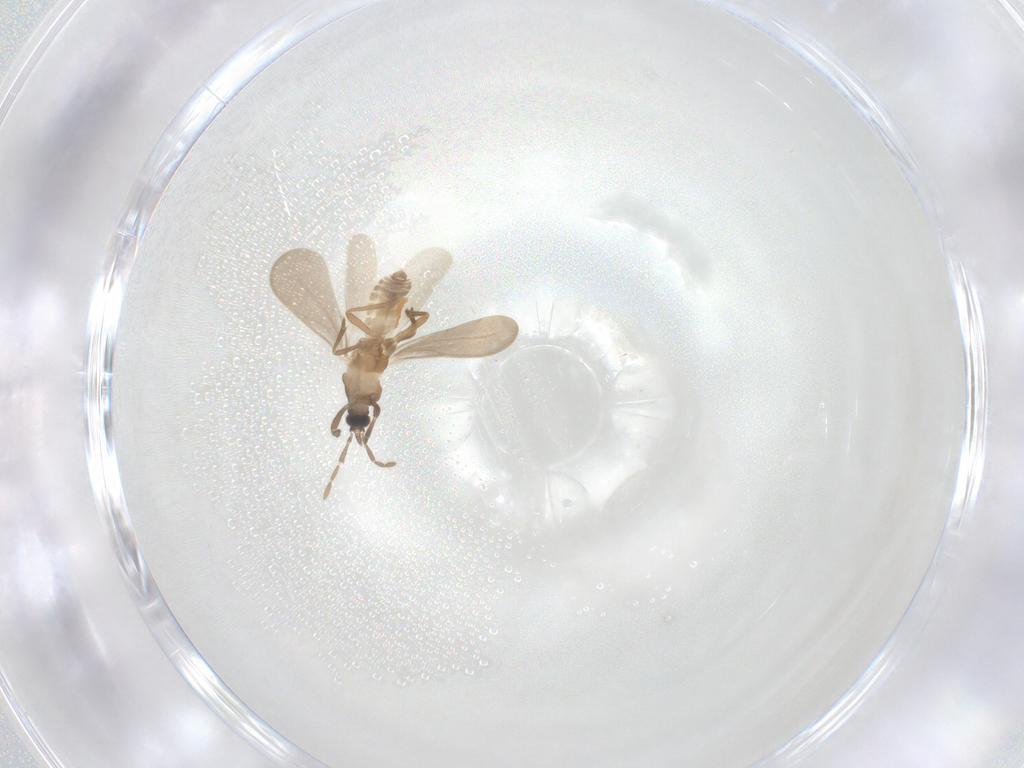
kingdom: Animalia
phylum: Arthropoda
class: Insecta
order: Diptera
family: Psychodidae
